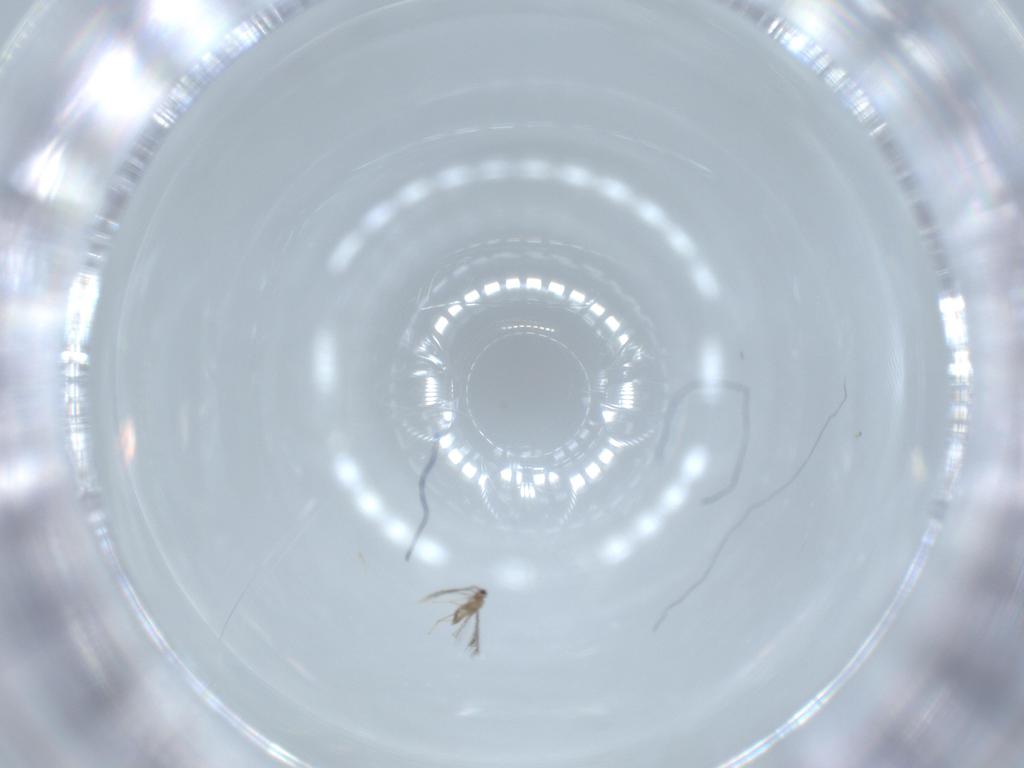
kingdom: Animalia
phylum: Arthropoda
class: Insecta
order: Hymenoptera
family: Mymaridae
